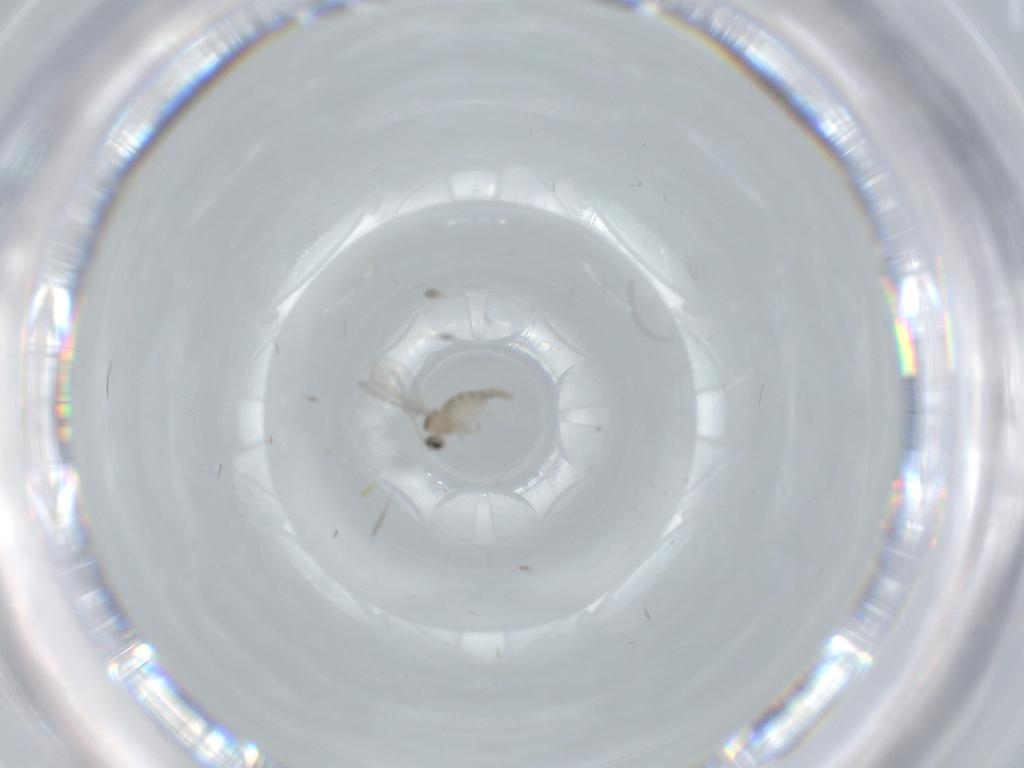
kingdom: Animalia
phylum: Arthropoda
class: Insecta
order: Diptera
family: Cecidomyiidae
